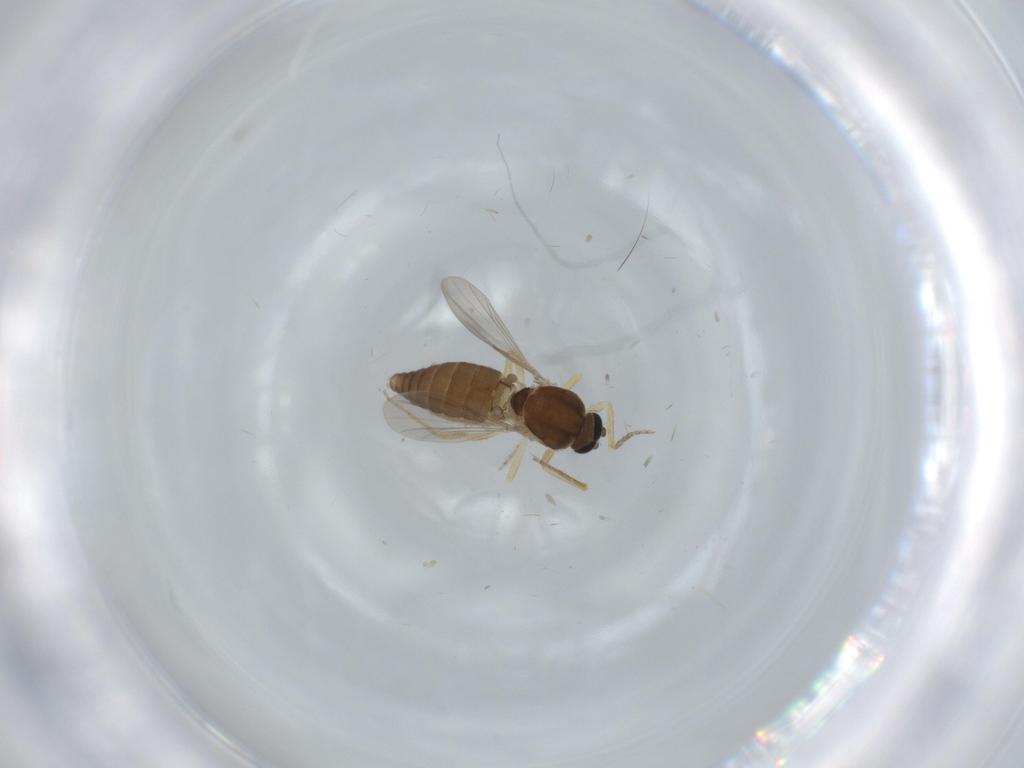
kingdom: Animalia
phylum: Arthropoda
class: Insecta
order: Diptera
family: Ceratopogonidae
